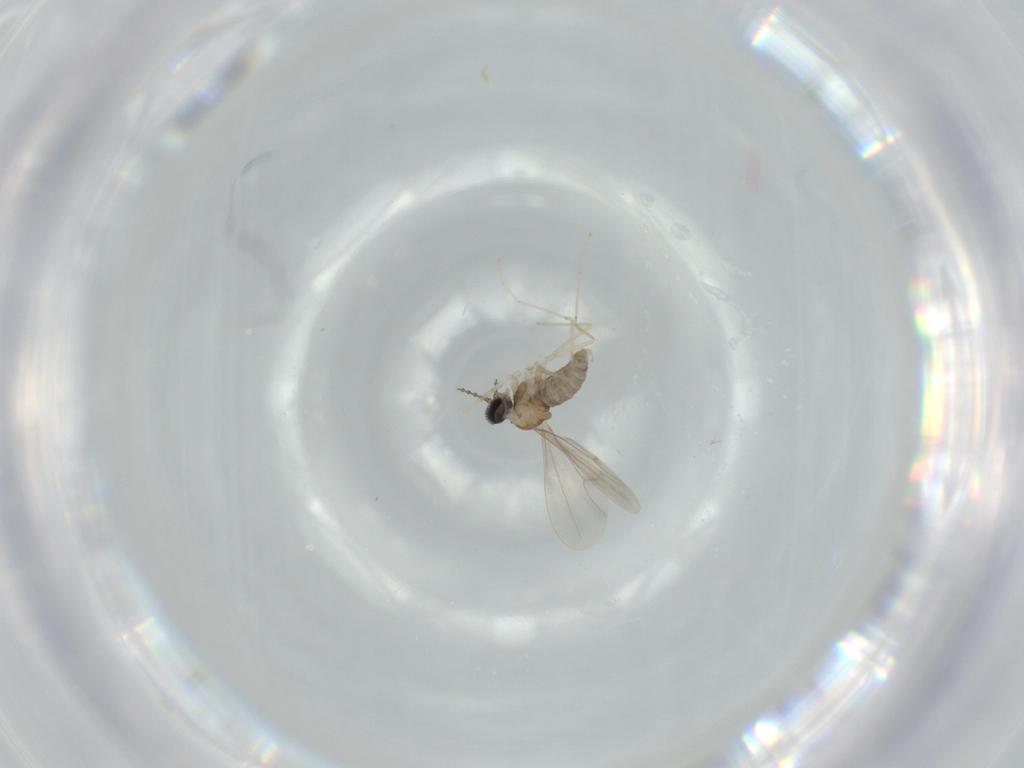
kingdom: Animalia
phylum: Arthropoda
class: Insecta
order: Diptera
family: Cecidomyiidae
